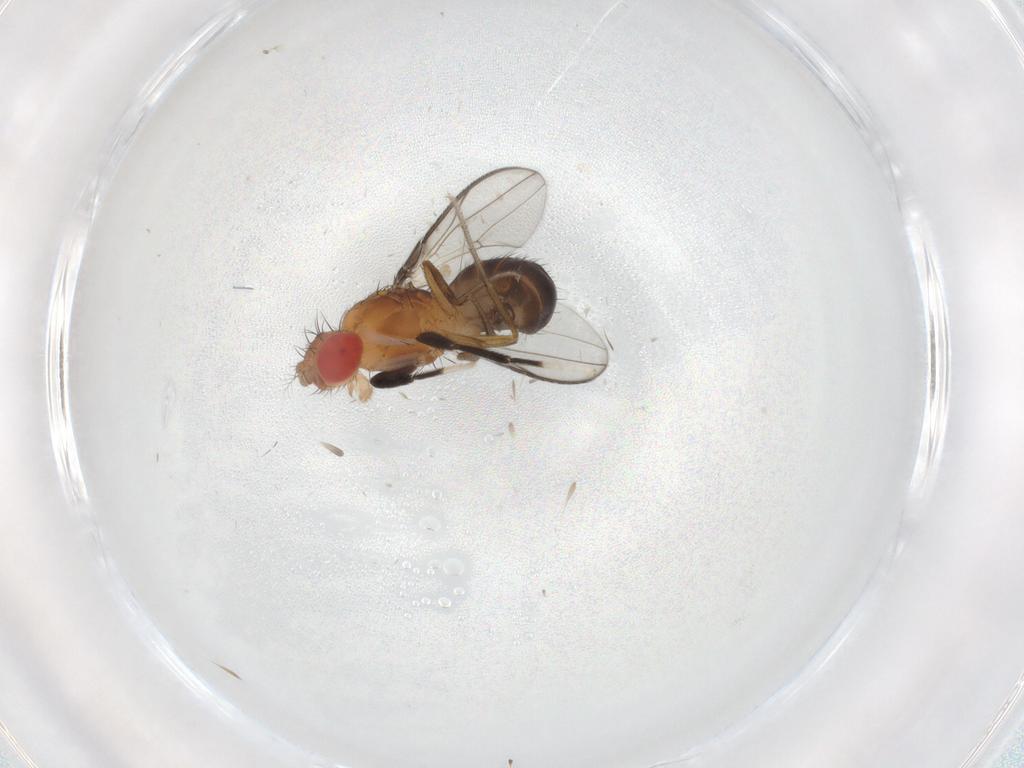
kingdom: Animalia
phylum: Arthropoda
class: Insecta
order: Diptera
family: Drosophilidae
